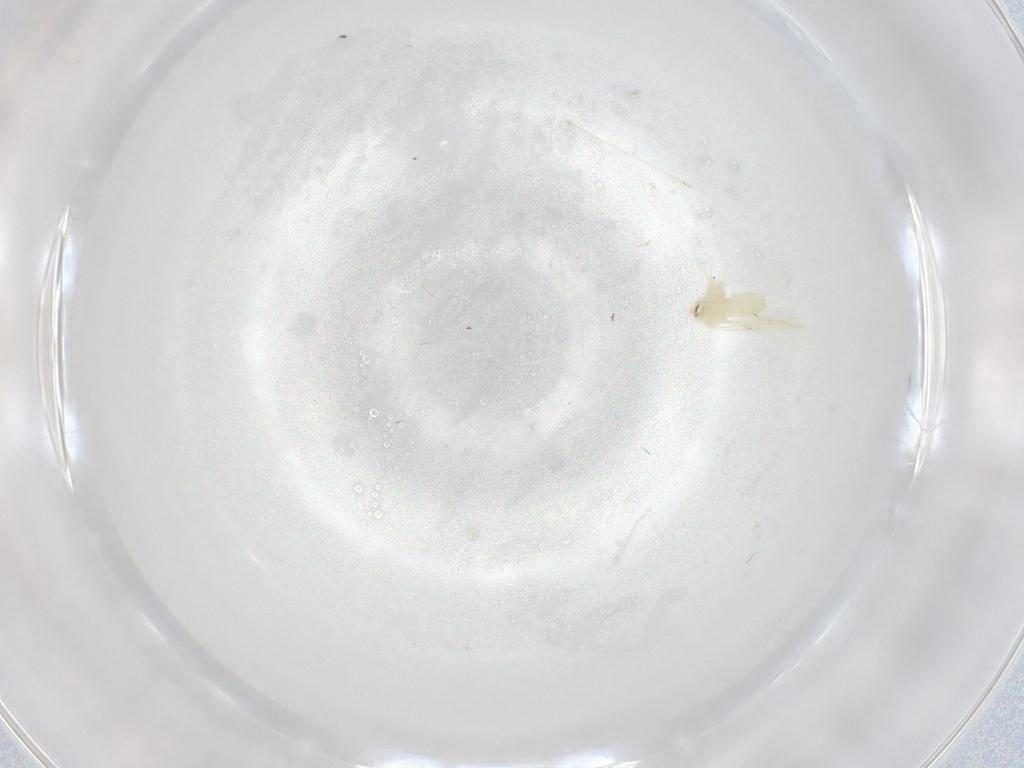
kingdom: Animalia
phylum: Arthropoda
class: Insecta
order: Hemiptera
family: Aleyrodidae
